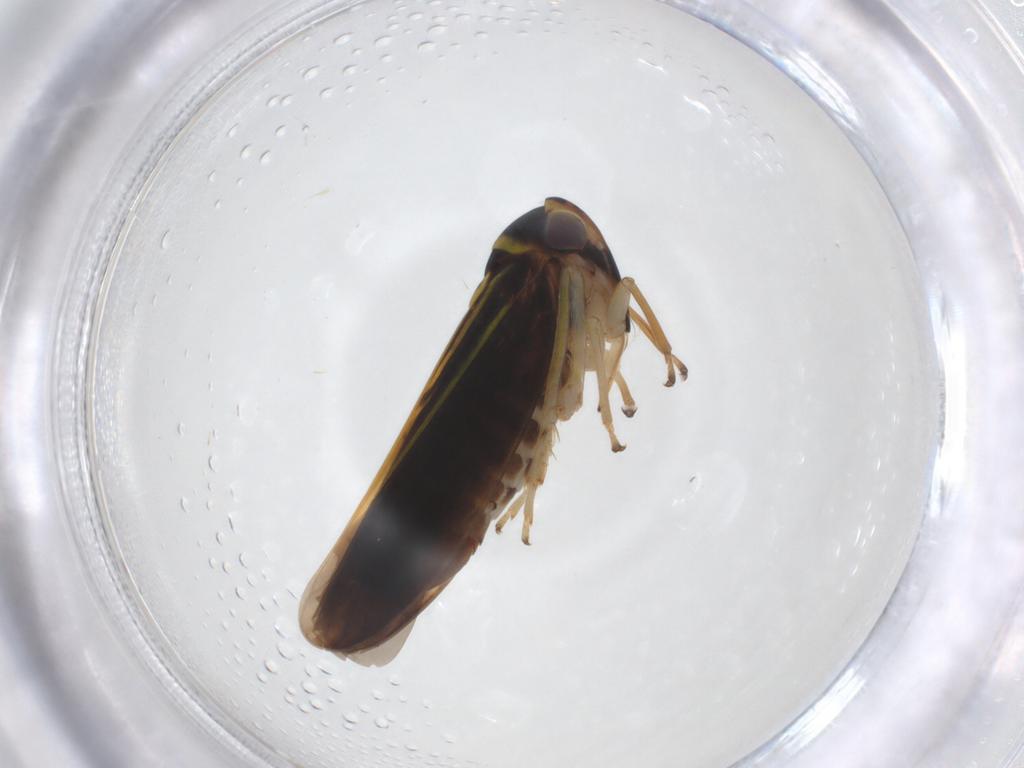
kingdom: Animalia
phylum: Arthropoda
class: Insecta
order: Hemiptera
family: Cicadellidae
